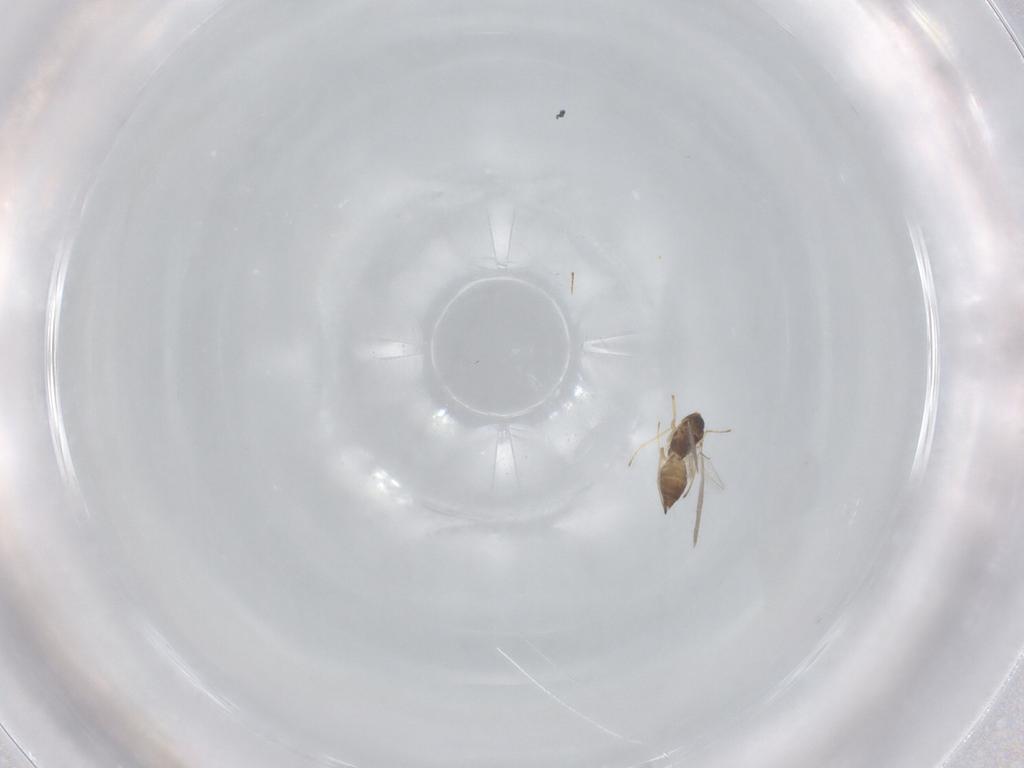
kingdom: Animalia
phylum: Arthropoda
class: Insecta
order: Hymenoptera
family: Eulophidae
